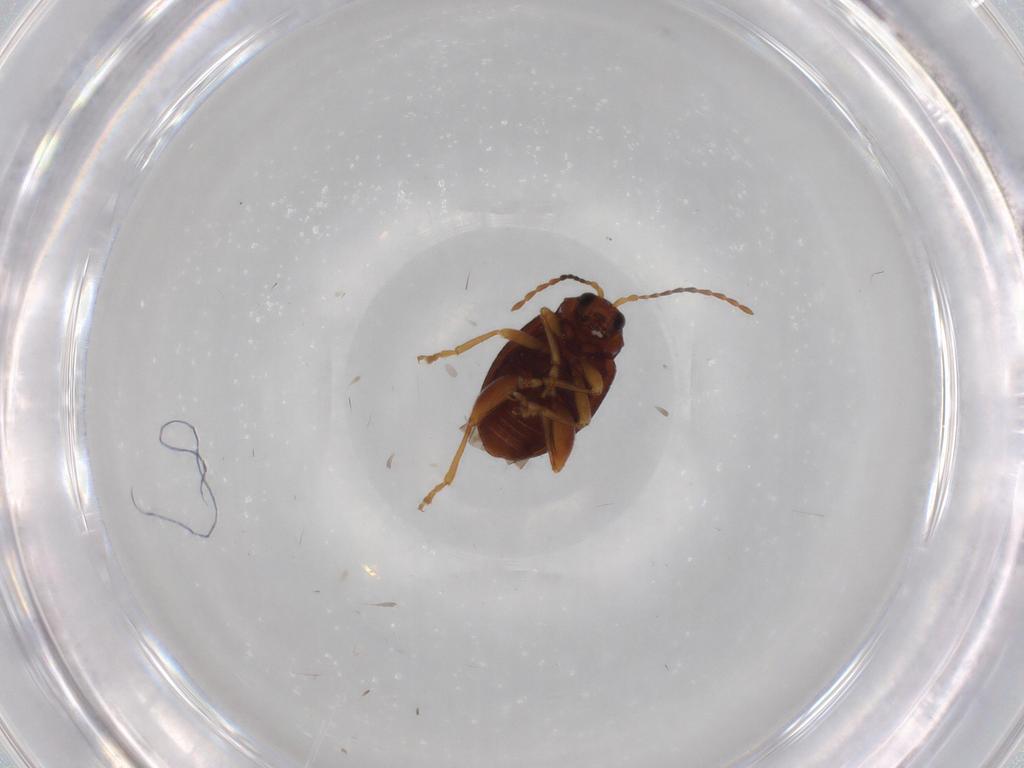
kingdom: Animalia
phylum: Arthropoda
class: Insecta
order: Coleoptera
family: Chrysomelidae
